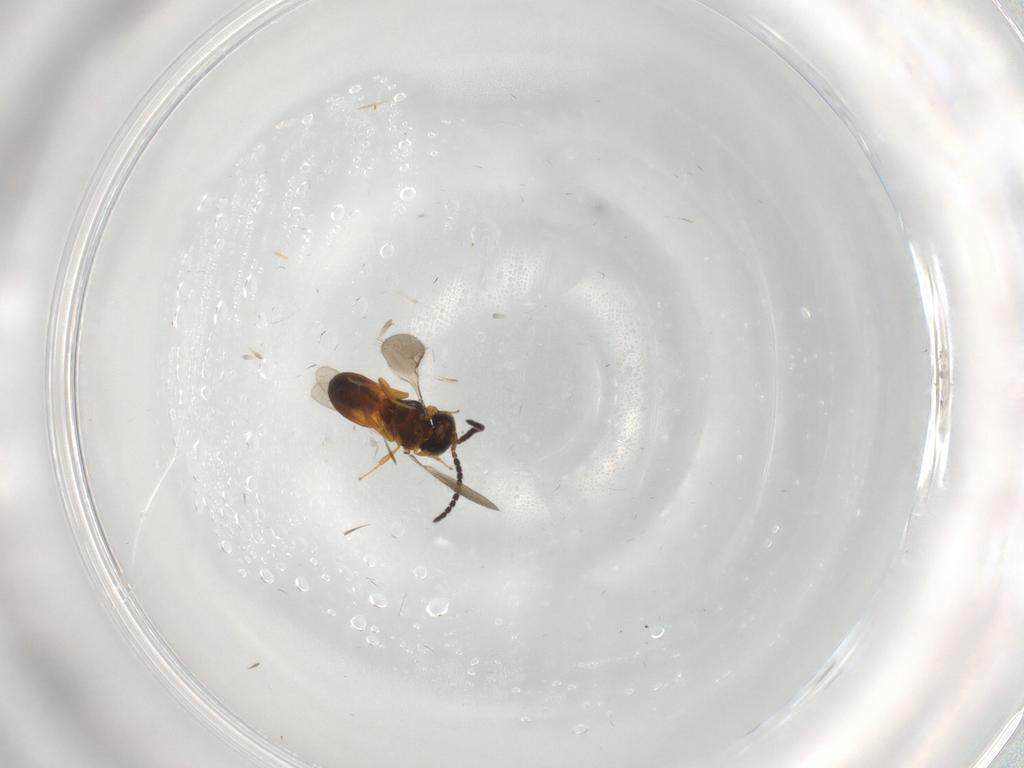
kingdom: Animalia
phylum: Arthropoda
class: Insecta
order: Hymenoptera
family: Scelionidae
